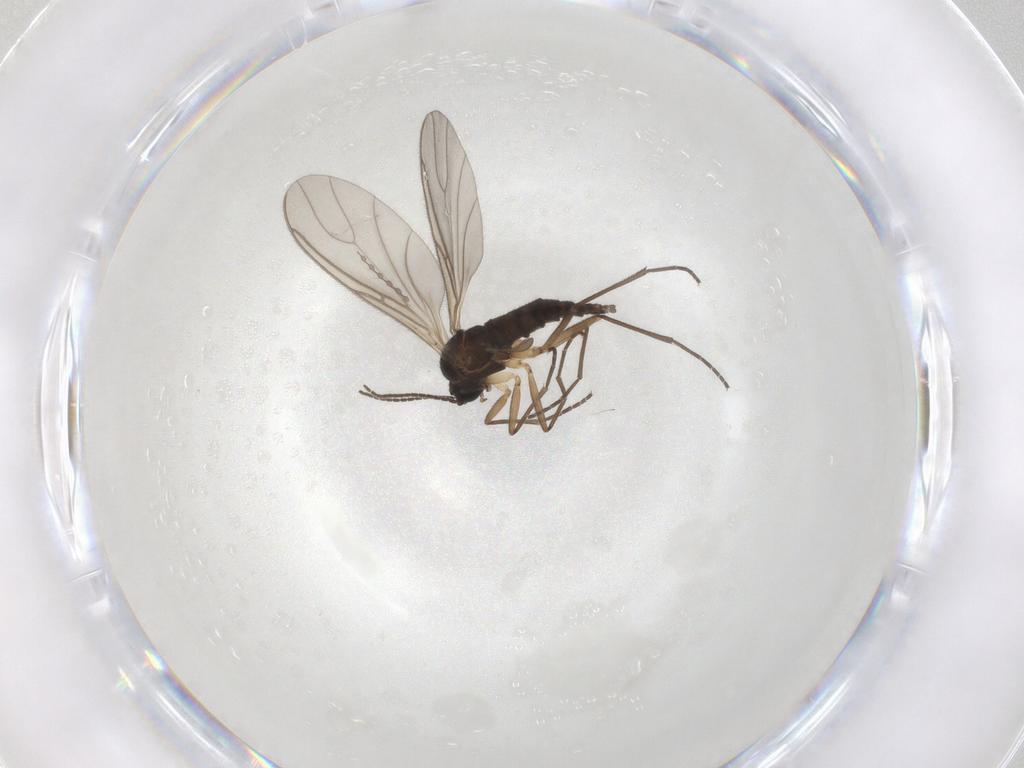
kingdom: Animalia
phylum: Arthropoda
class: Insecta
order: Diptera
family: Sciaridae
